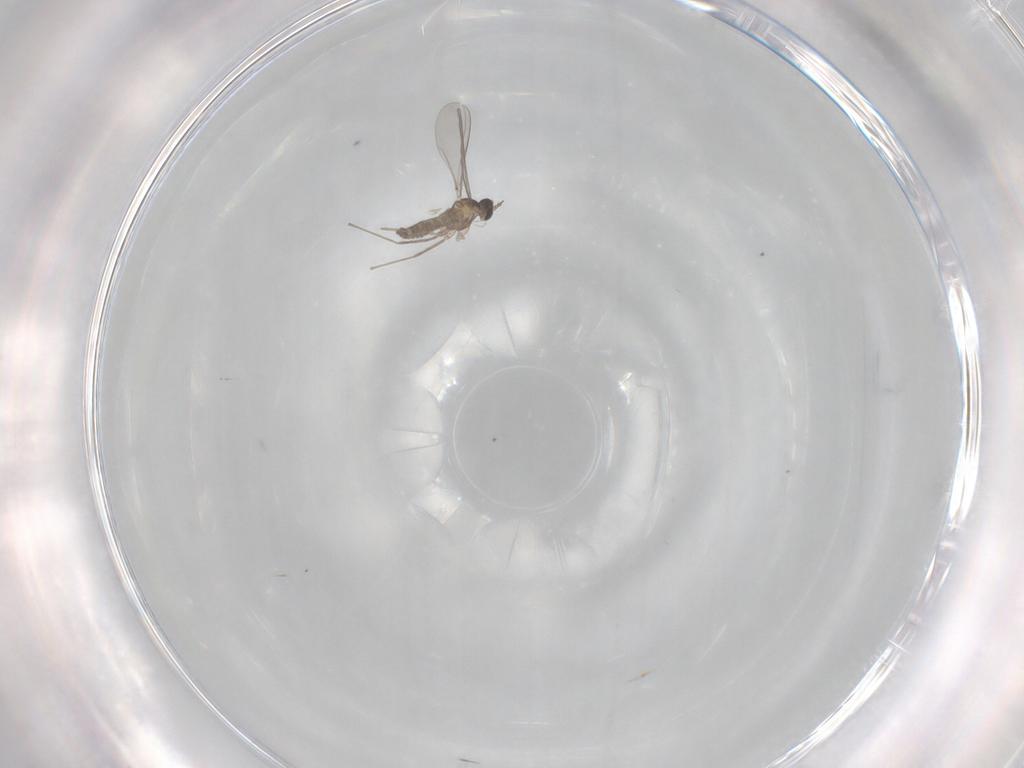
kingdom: Animalia
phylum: Arthropoda
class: Insecta
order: Diptera
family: Cecidomyiidae
